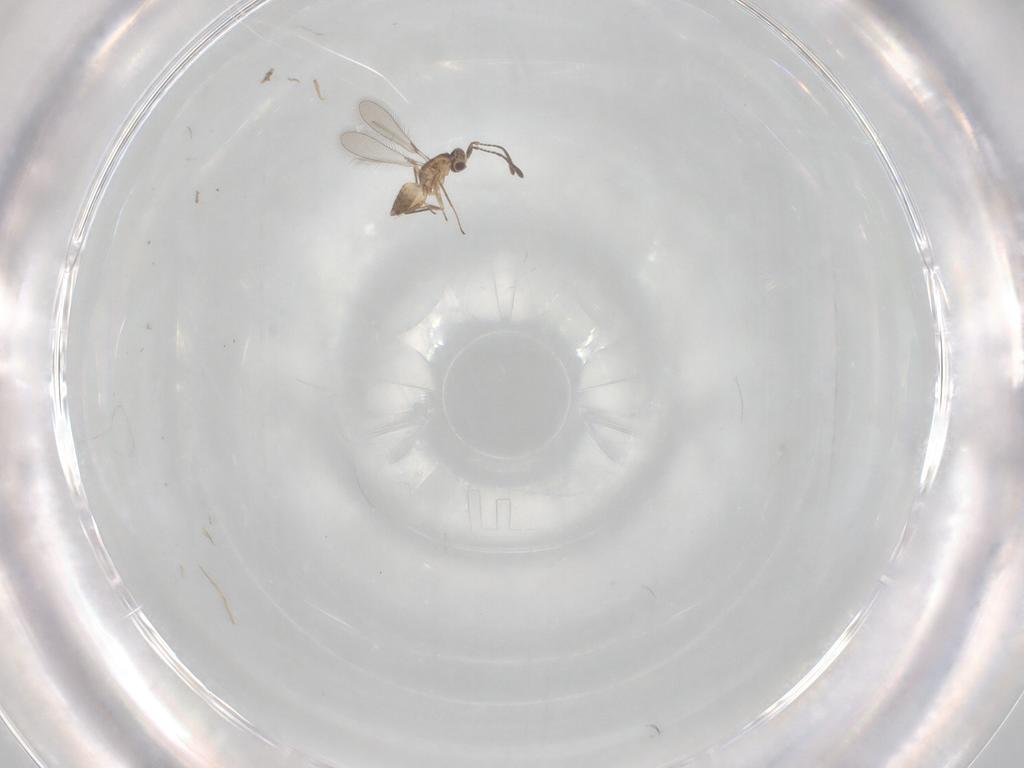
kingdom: Animalia
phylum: Arthropoda
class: Insecta
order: Hymenoptera
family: Mymaridae
